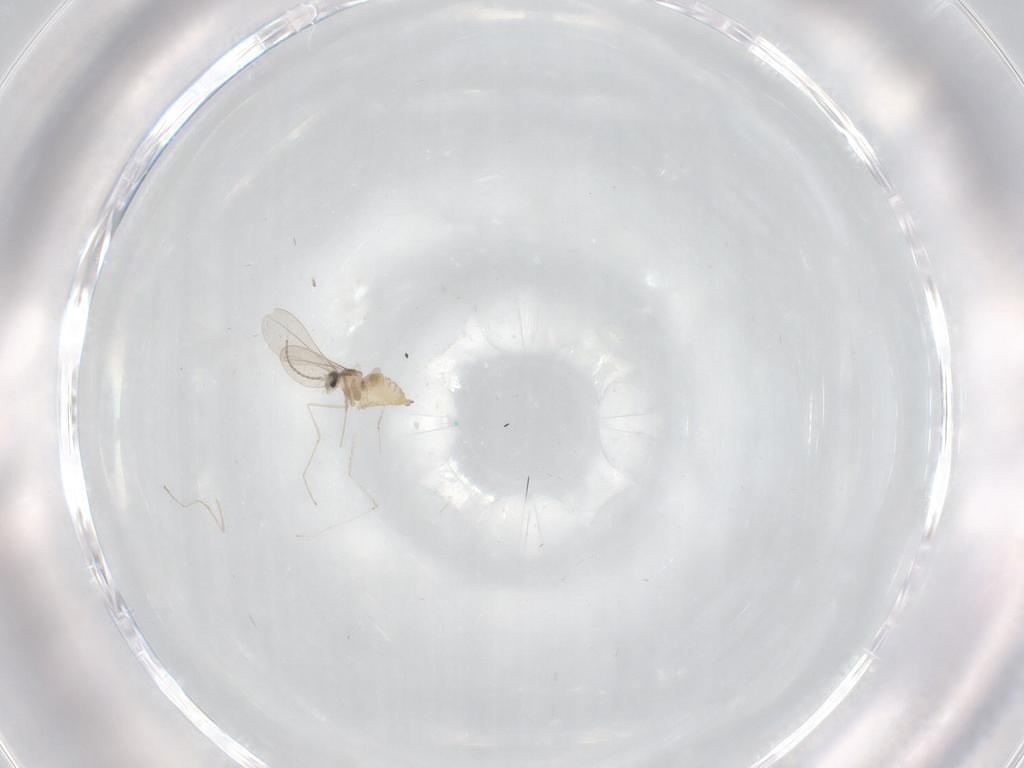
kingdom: Animalia
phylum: Arthropoda
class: Insecta
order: Diptera
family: Cecidomyiidae
